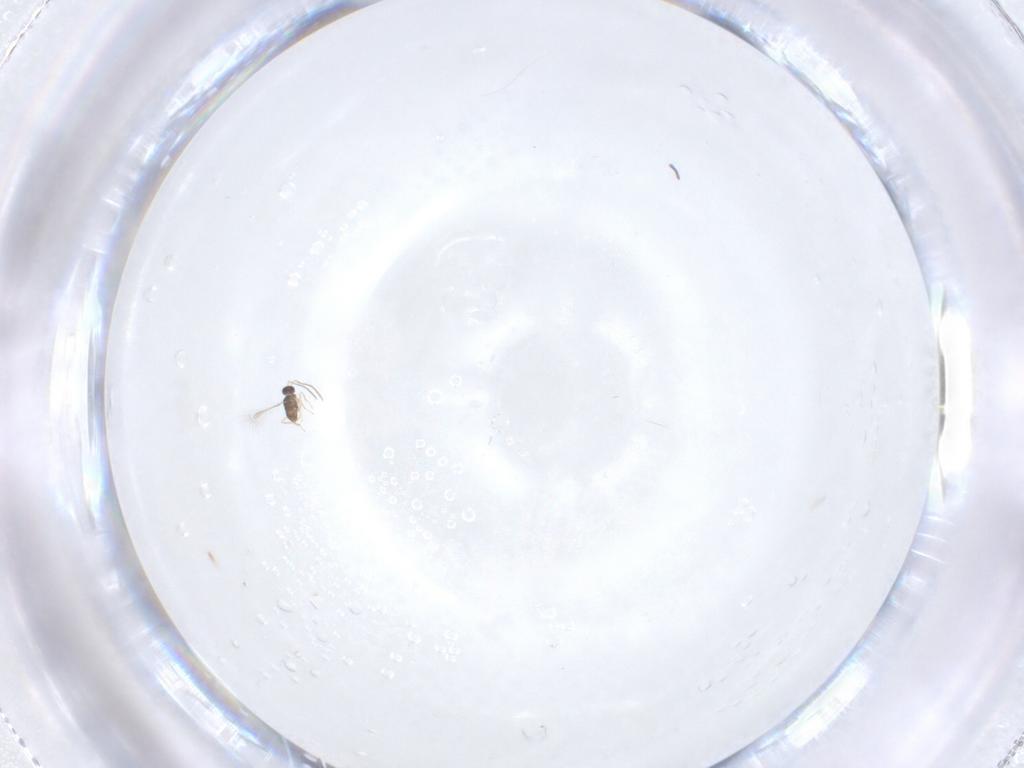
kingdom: Animalia
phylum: Arthropoda
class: Insecta
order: Hymenoptera
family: Mymaridae
